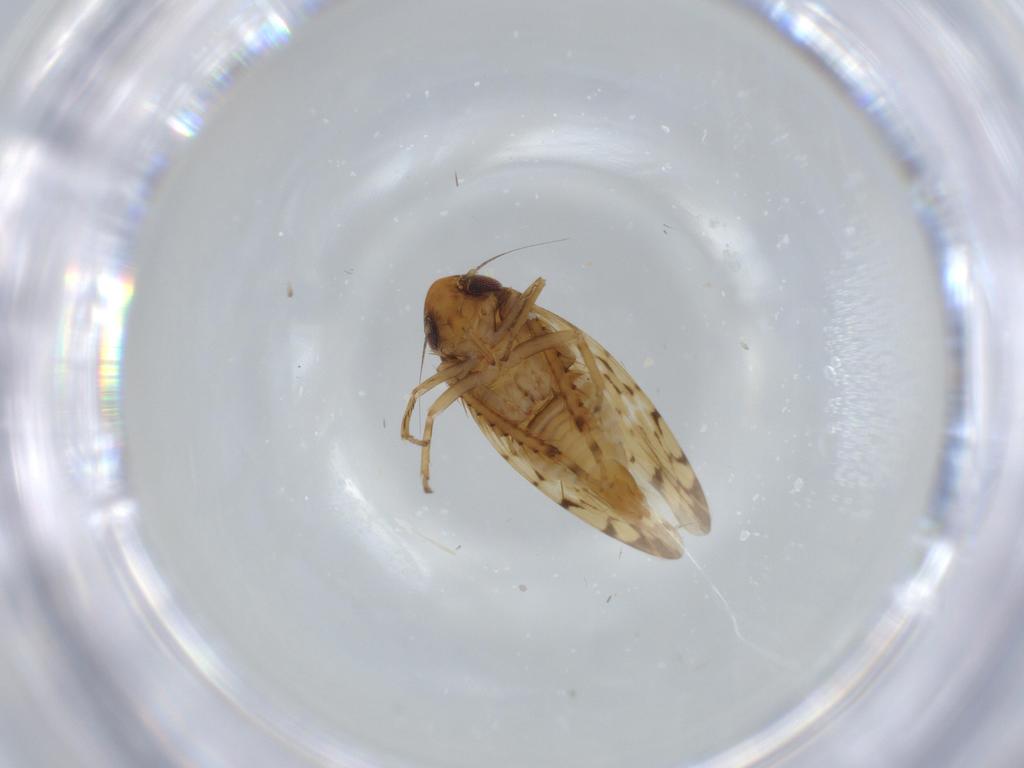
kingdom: Animalia
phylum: Arthropoda
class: Insecta
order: Hemiptera
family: Cicadellidae
